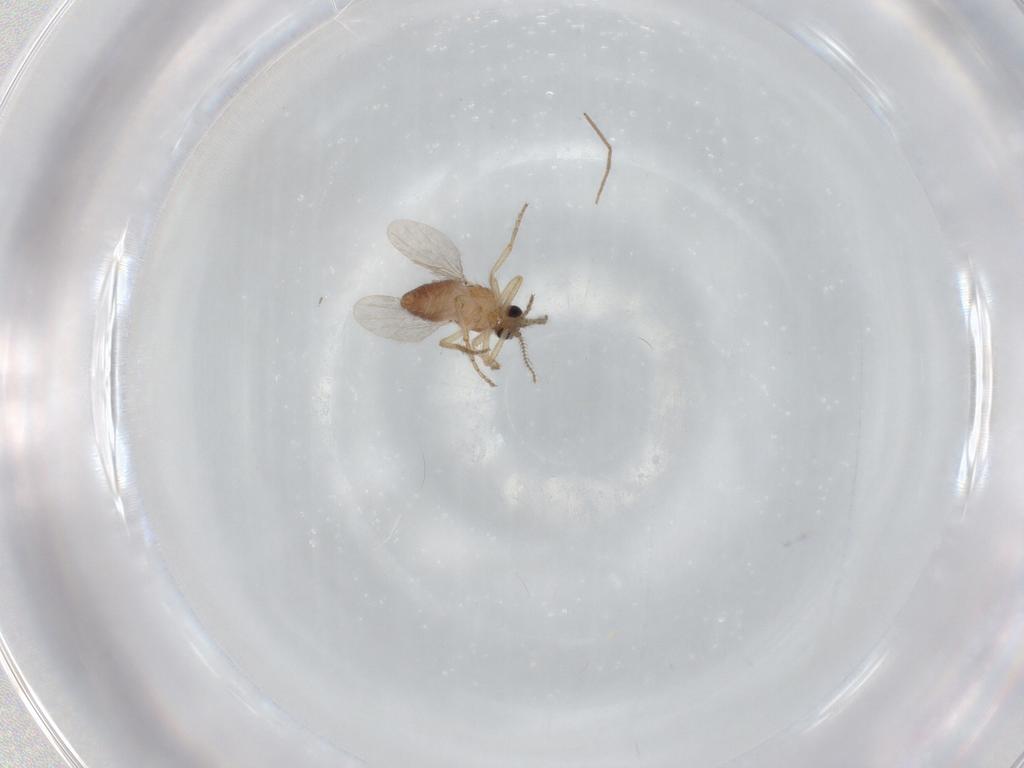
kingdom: Animalia
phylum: Arthropoda
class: Insecta
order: Diptera
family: Ceratopogonidae
